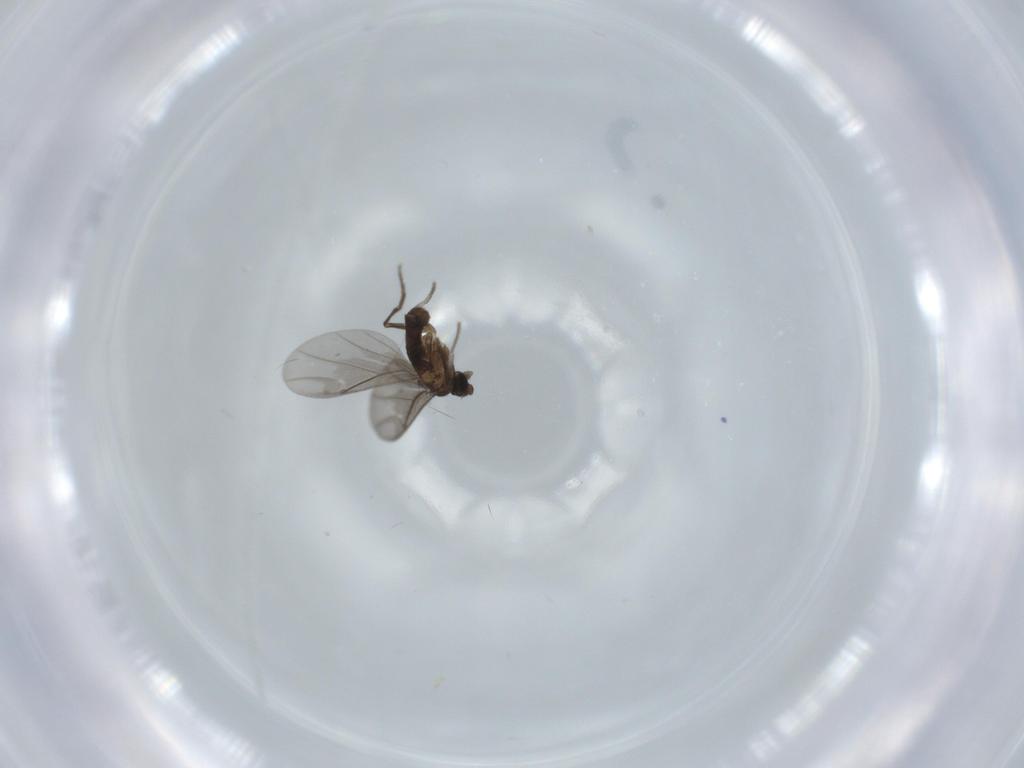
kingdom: Animalia
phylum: Arthropoda
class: Insecta
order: Diptera
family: Phoridae
